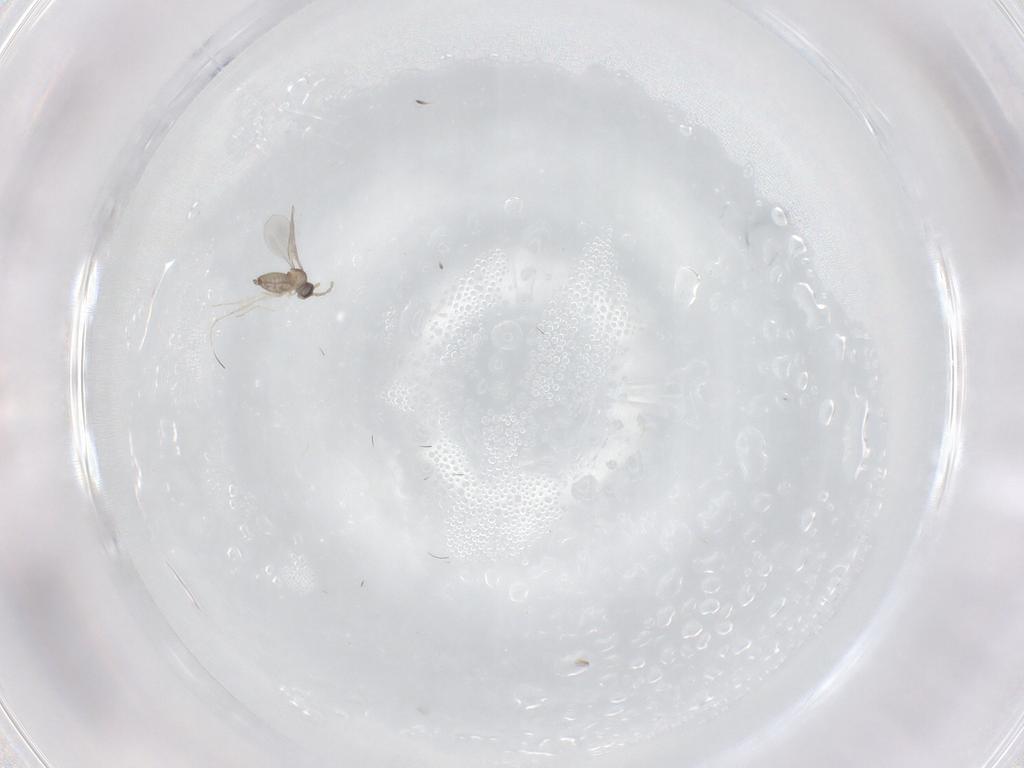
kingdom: Animalia
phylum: Arthropoda
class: Insecta
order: Diptera
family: Cecidomyiidae
